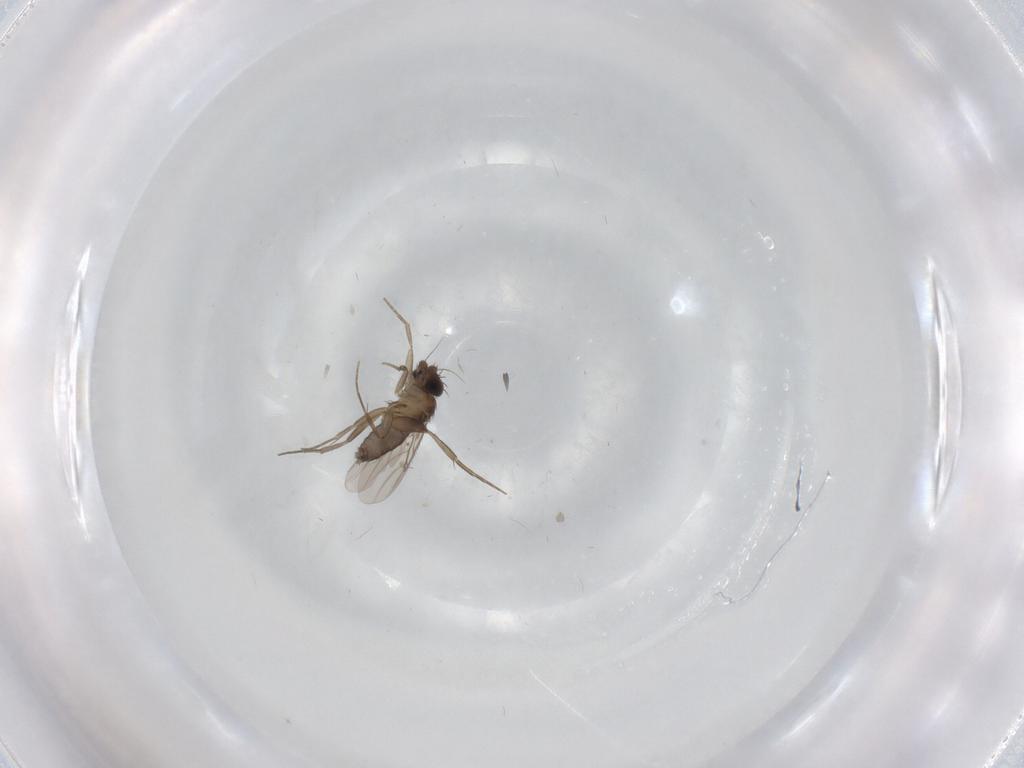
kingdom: Animalia
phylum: Arthropoda
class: Insecta
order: Diptera
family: Phoridae
